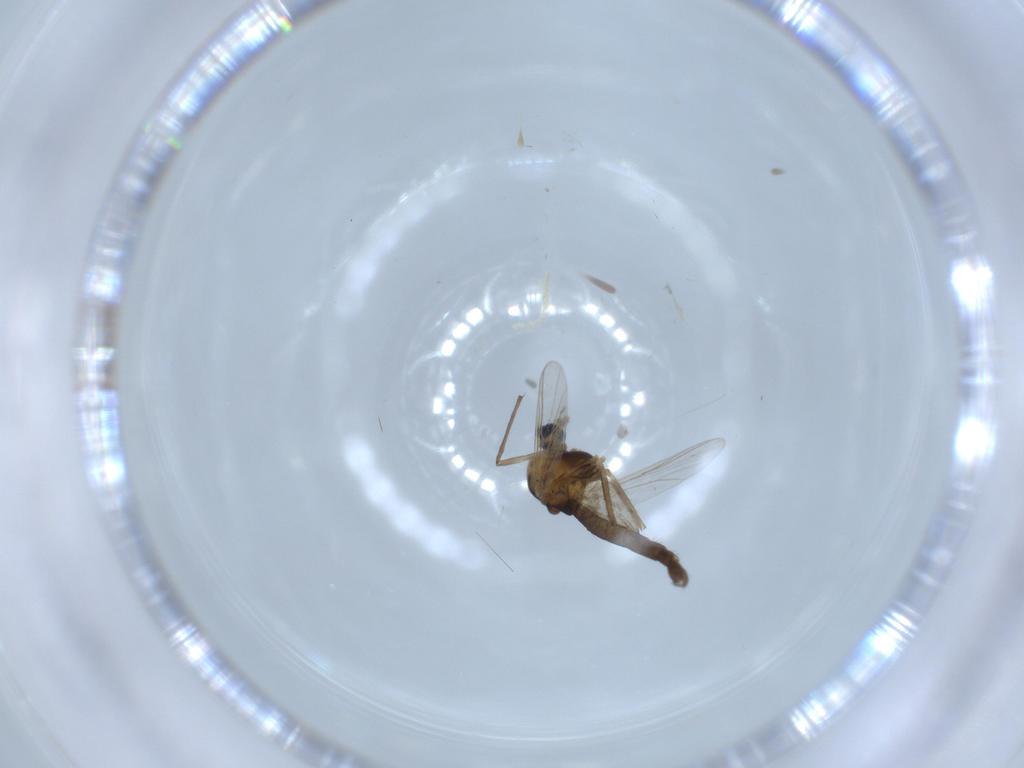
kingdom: Animalia
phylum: Arthropoda
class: Insecta
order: Diptera
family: Chironomidae
